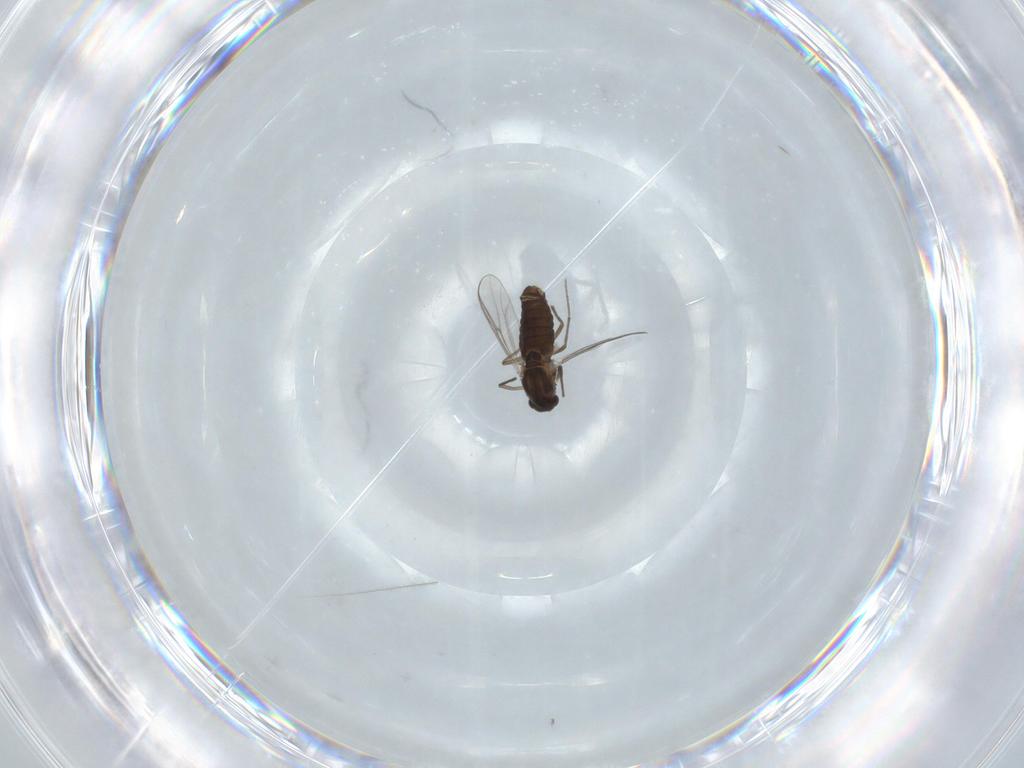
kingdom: Animalia
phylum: Arthropoda
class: Insecta
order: Diptera
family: Chironomidae
